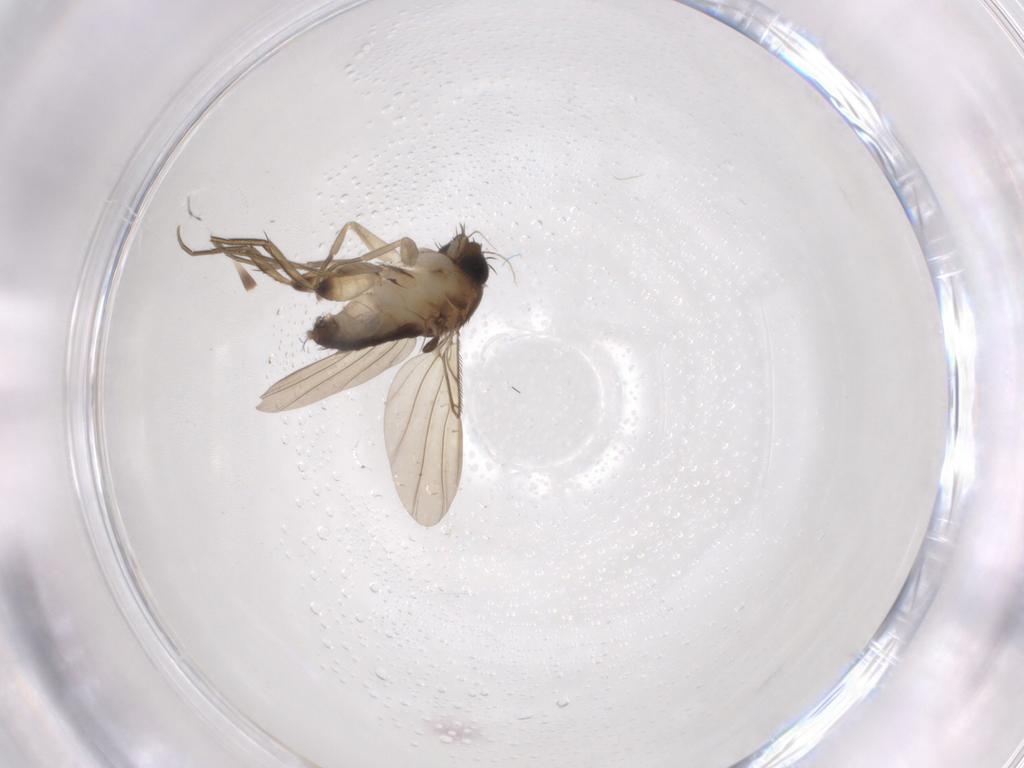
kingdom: Animalia
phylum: Arthropoda
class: Insecta
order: Diptera
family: Phoridae
